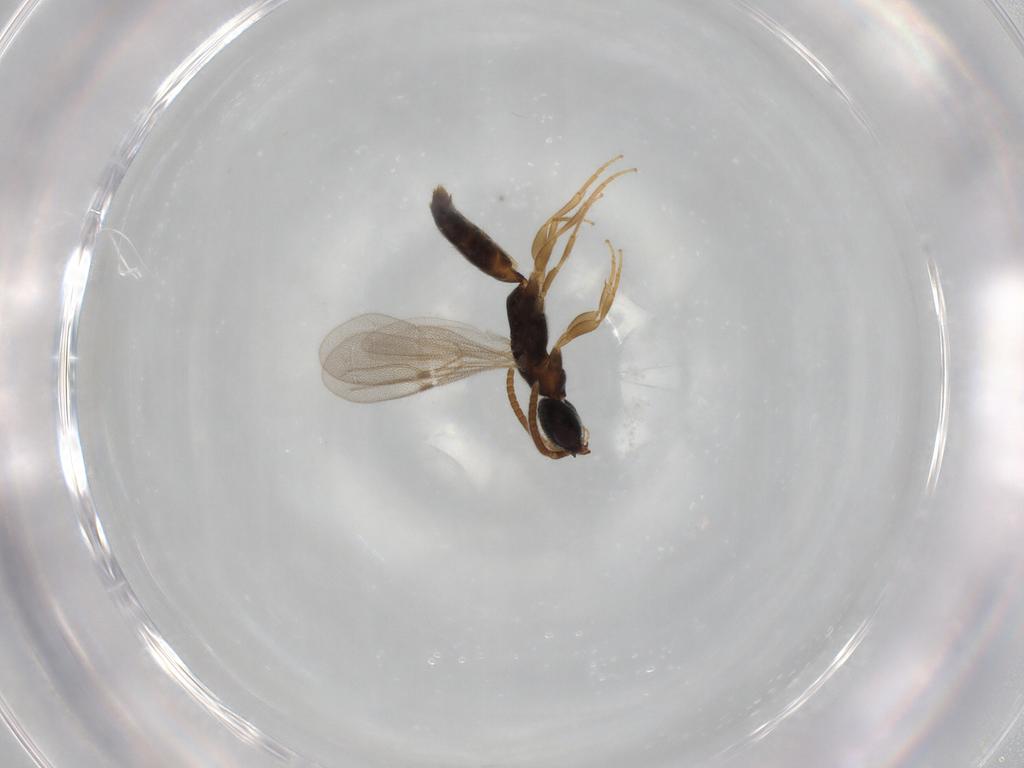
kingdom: Animalia
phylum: Arthropoda
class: Insecta
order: Hymenoptera
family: Bethylidae
